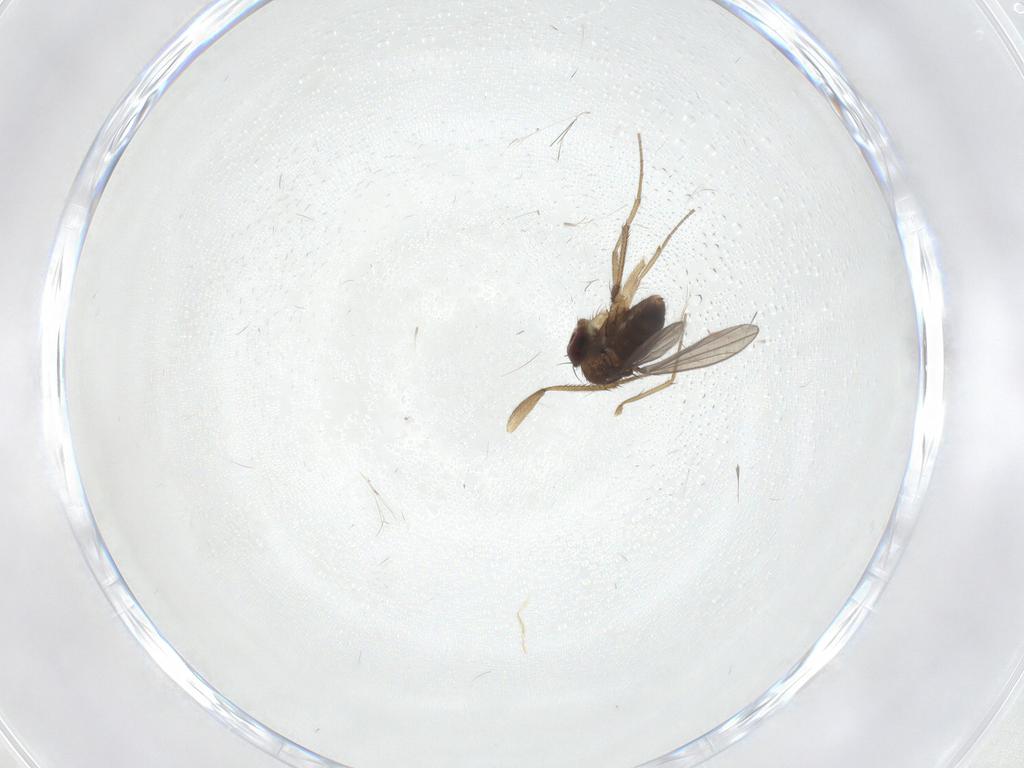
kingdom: Animalia
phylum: Arthropoda
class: Insecta
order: Diptera
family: Dolichopodidae
